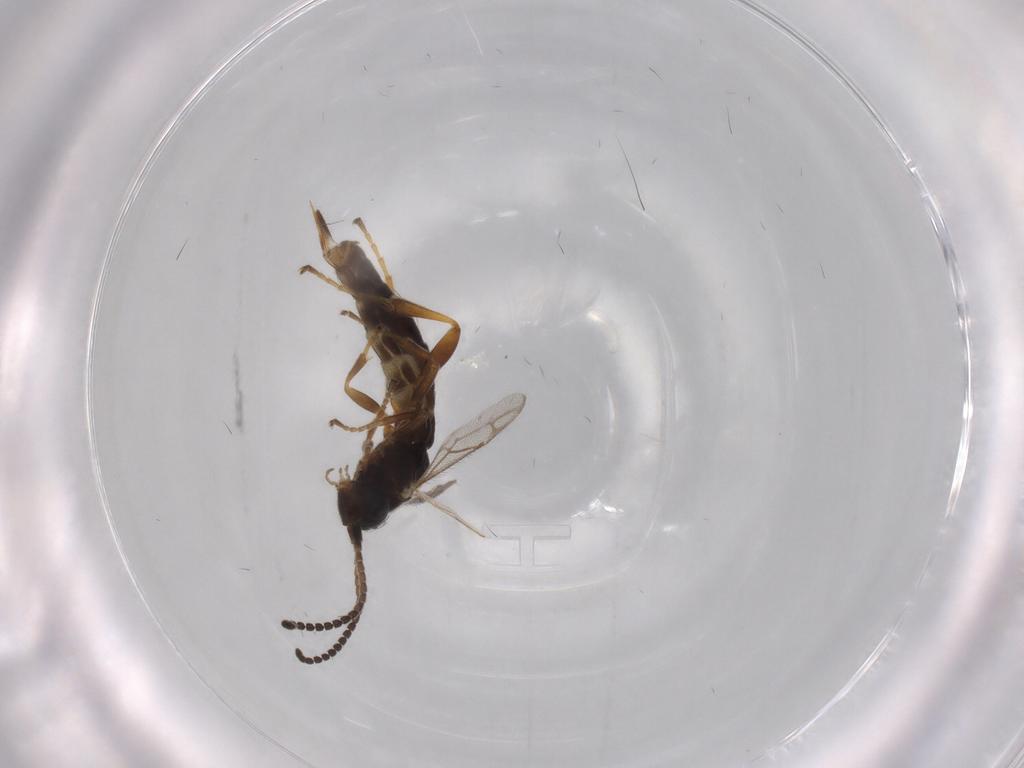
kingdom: Animalia
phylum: Arthropoda
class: Insecta
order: Hymenoptera
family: Ichneumonidae
